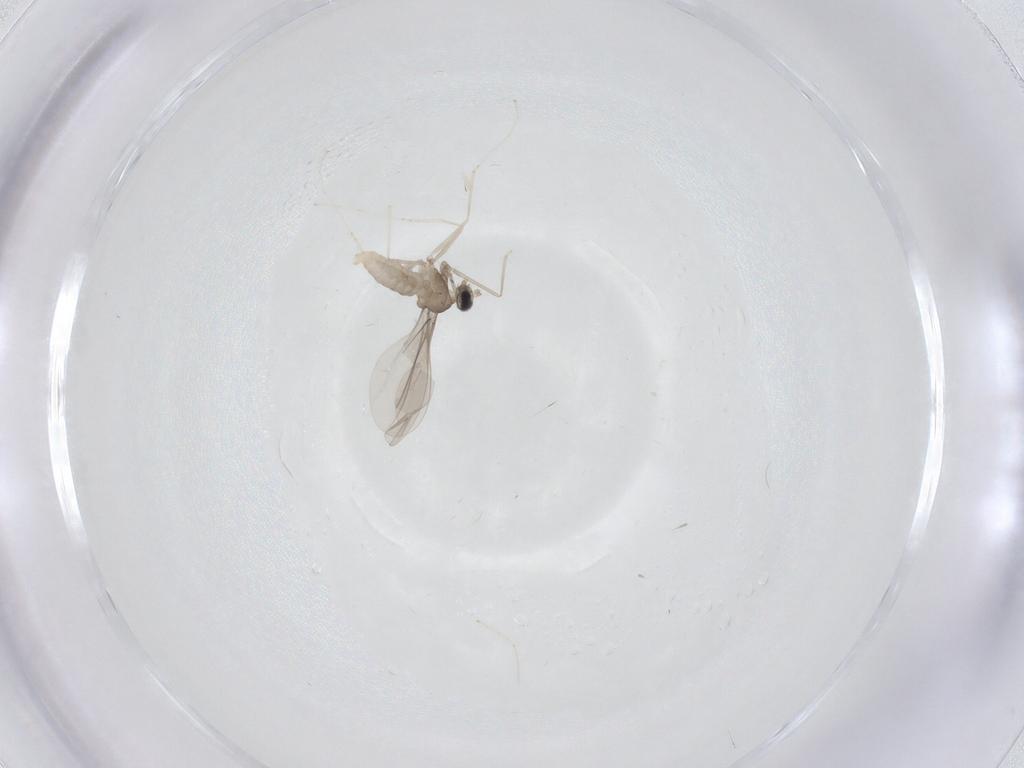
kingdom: Animalia
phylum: Arthropoda
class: Insecta
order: Diptera
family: Cecidomyiidae
